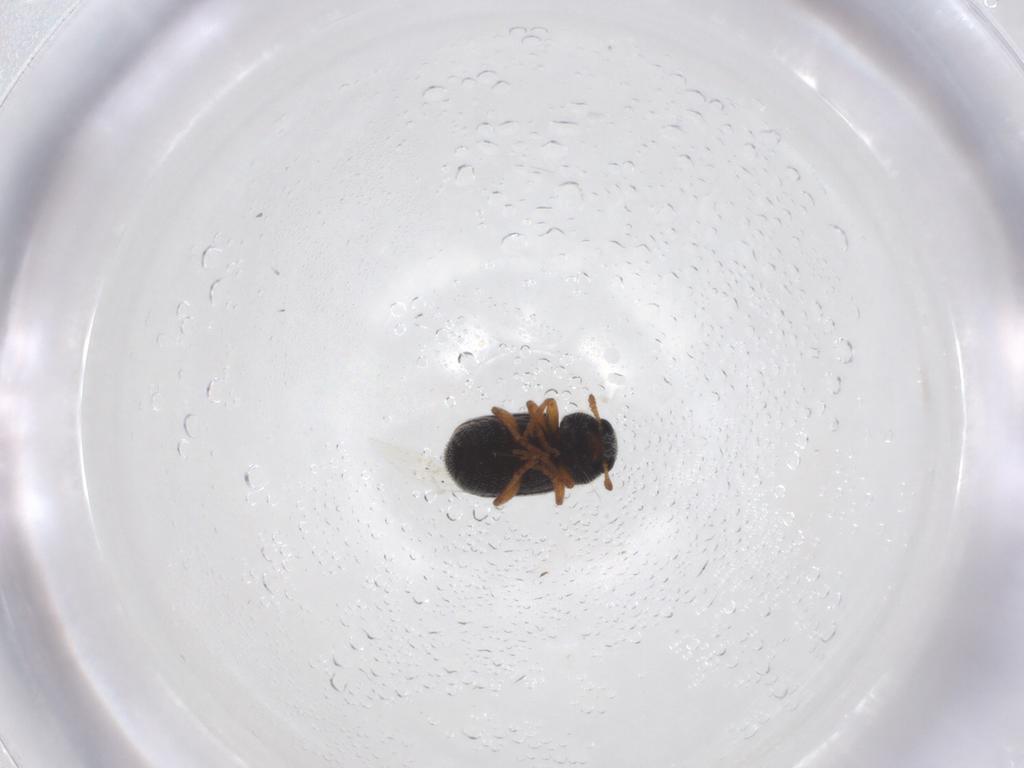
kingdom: Animalia
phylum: Arthropoda
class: Insecta
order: Coleoptera
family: Anthribidae
